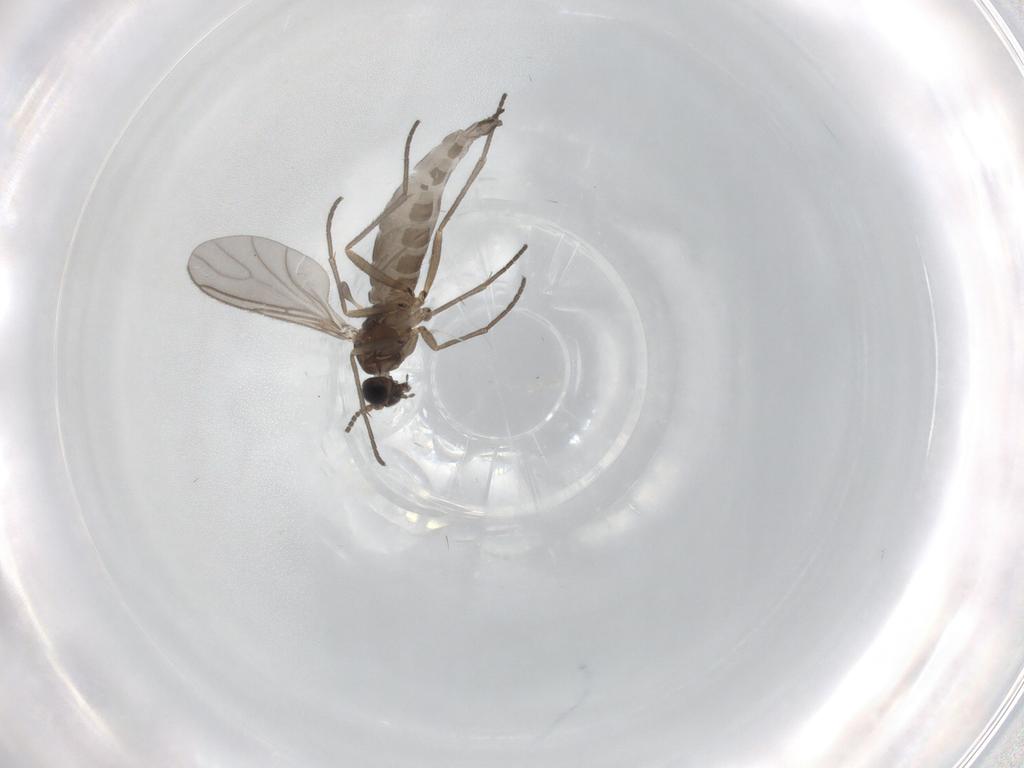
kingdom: Animalia
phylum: Arthropoda
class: Insecta
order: Diptera
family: Sciaridae
